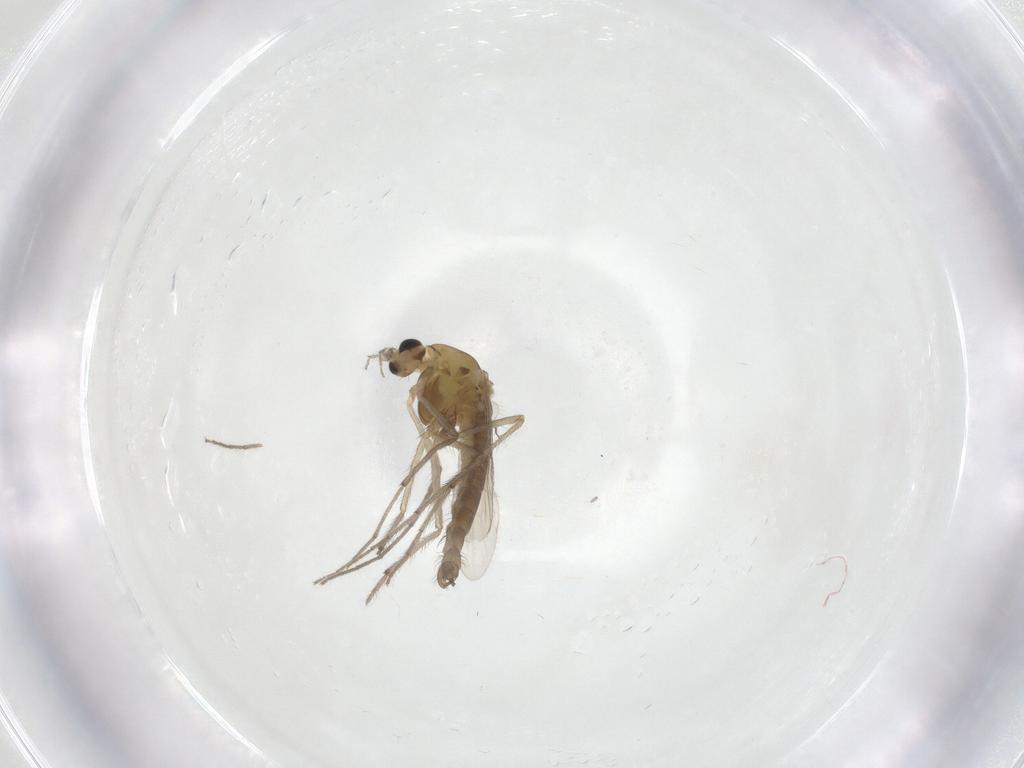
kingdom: Animalia
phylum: Arthropoda
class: Insecta
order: Diptera
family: Chironomidae
